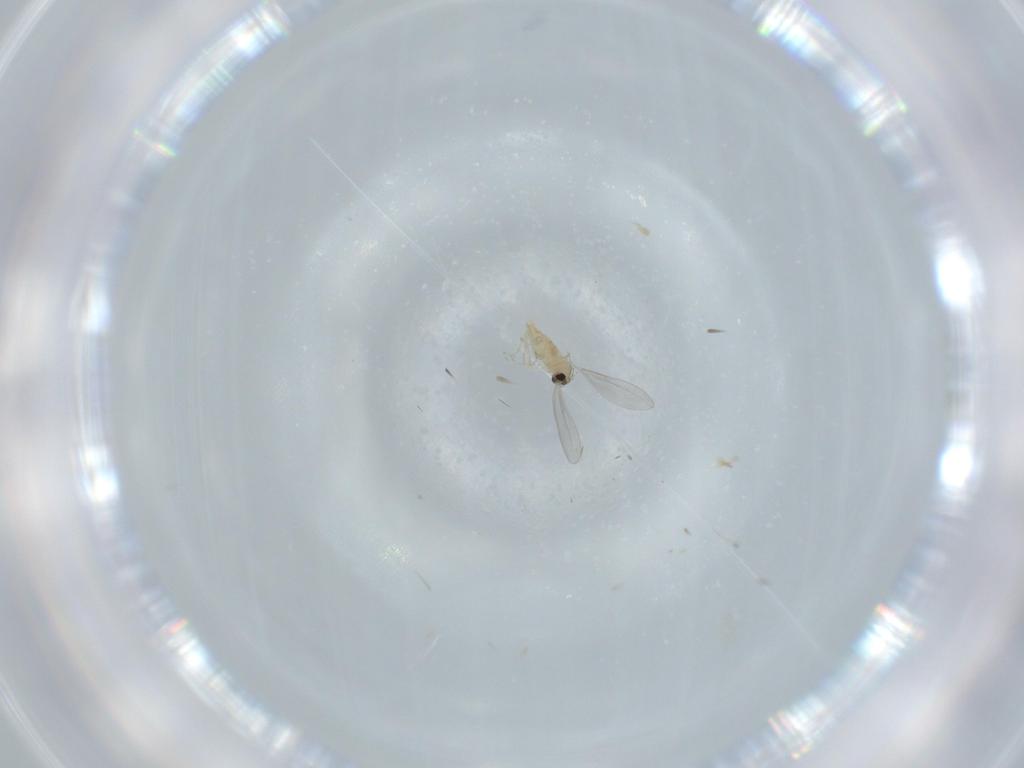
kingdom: Animalia
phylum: Arthropoda
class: Insecta
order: Diptera
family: Cecidomyiidae
